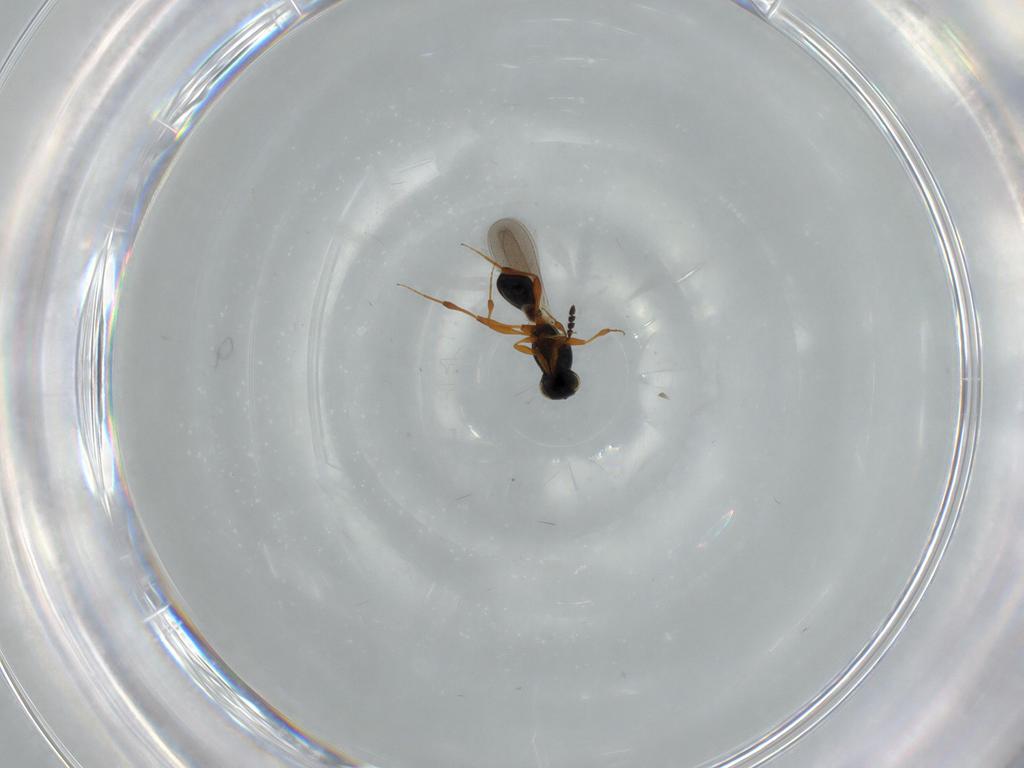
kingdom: Animalia
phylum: Arthropoda
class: Insecta
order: Hymenoptera
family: Platygastridae
